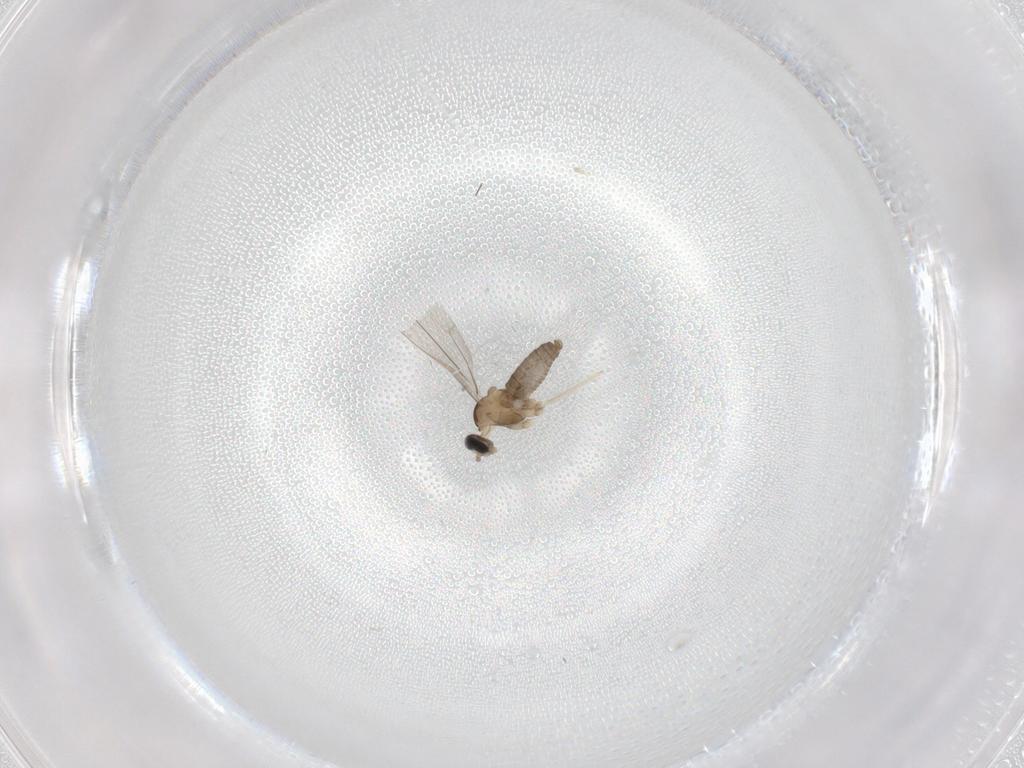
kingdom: Animalia
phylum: Arthropoda
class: Insecta
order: Diptera
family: Cecidomyiidae
